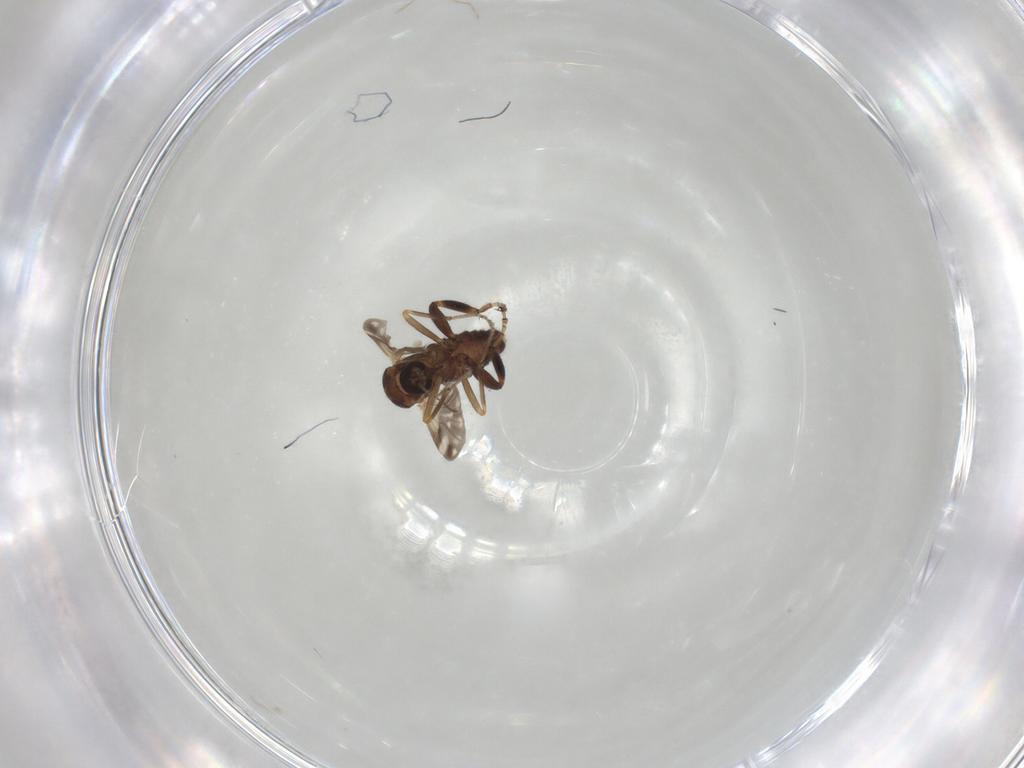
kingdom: Animalia
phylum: Arthropoda
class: Insecta
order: Diptera
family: Ceratopogonidae
